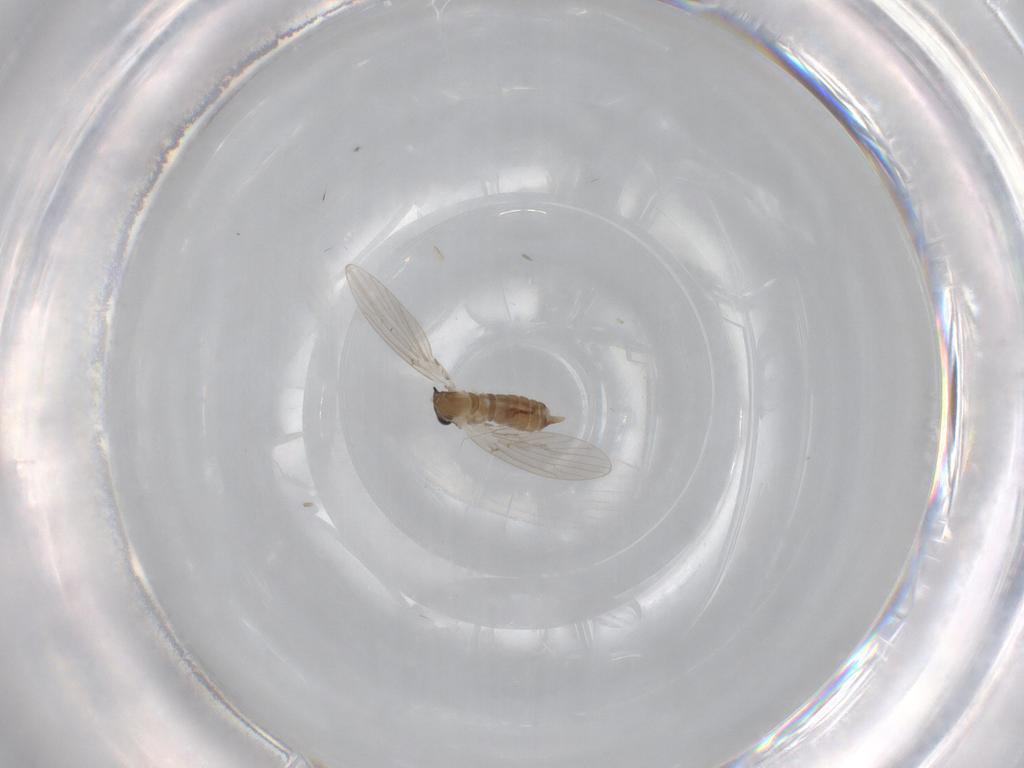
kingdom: Animalia
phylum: Arthropoda
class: Insecta
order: Diptera
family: Psychodidae
